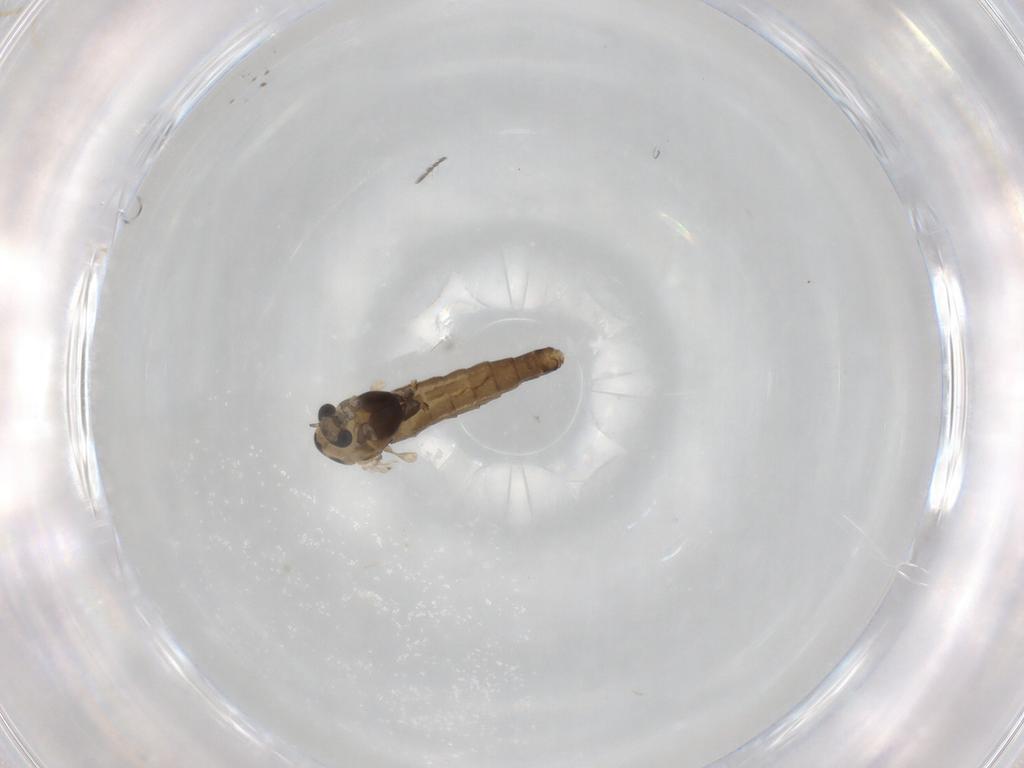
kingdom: Animalia
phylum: Arthropoda
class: Insecta
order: Diptera
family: Chironomidae
